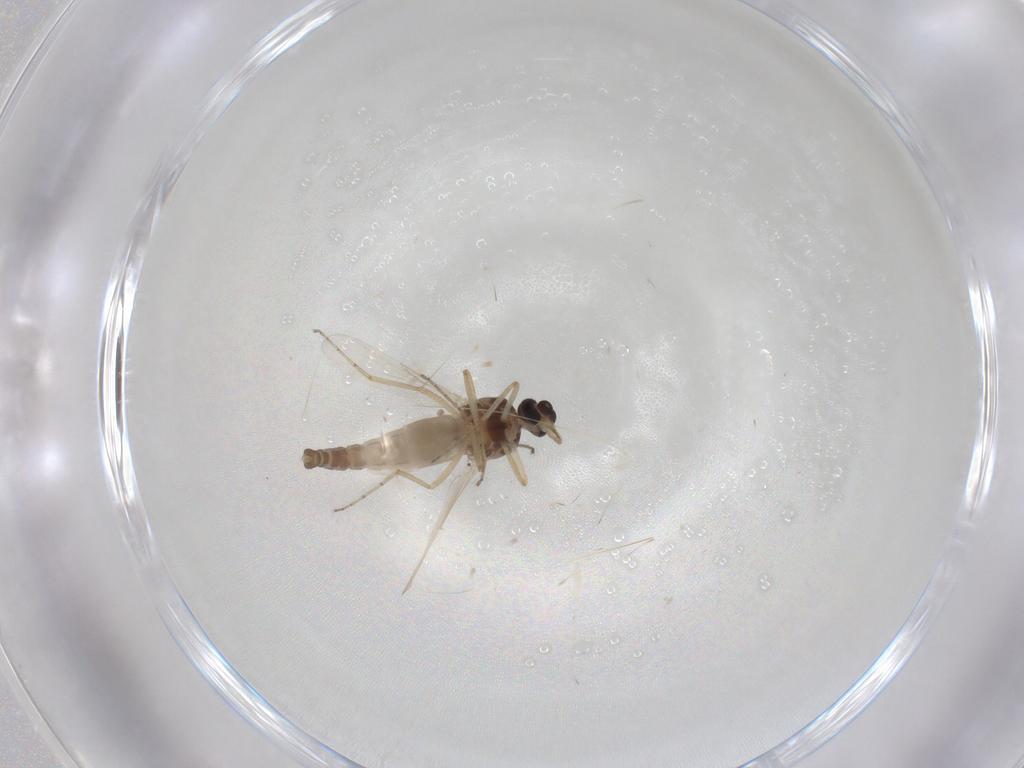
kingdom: Animalia
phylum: Arthropoda
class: Insecta
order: Diptera
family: Ceratopogonidae
